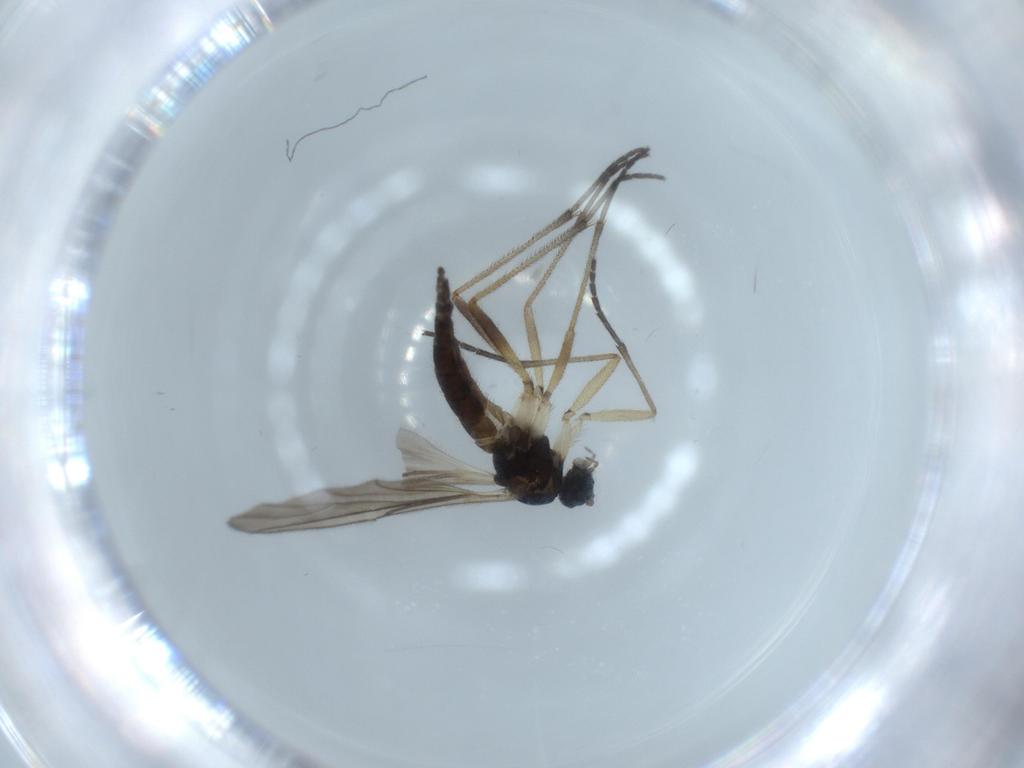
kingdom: Animalia
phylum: Arthropoda
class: Insecta
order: Diptera
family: Sciaridae
